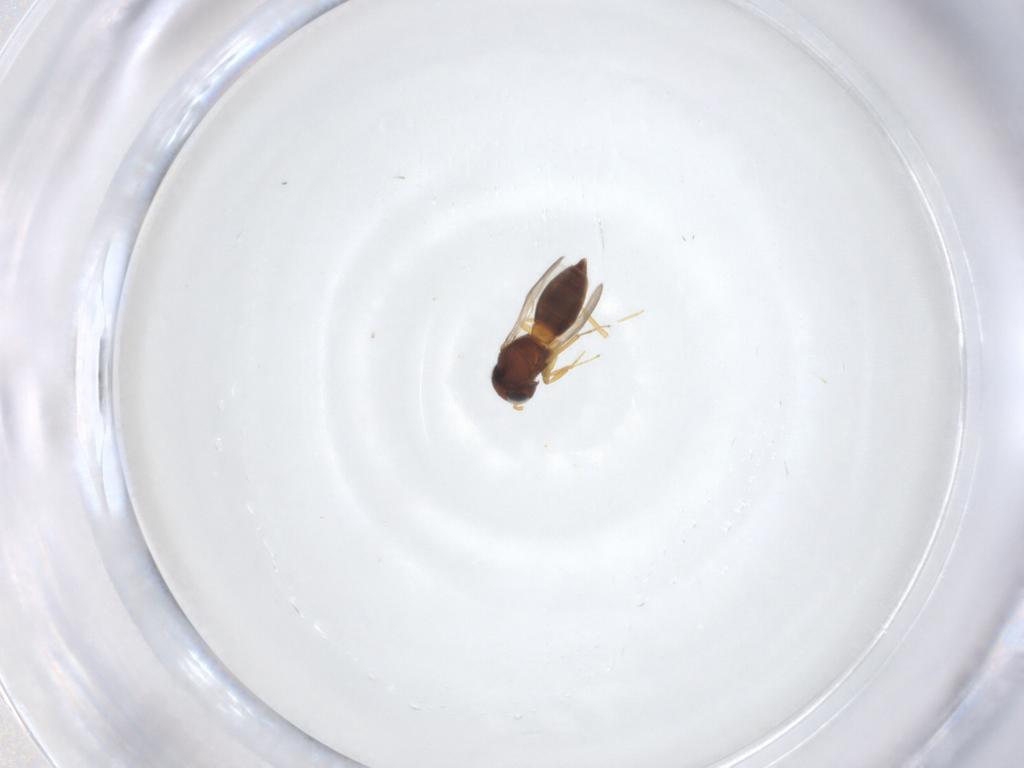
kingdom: Animalia
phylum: Arthropoda
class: Insecta
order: Hymenoptera
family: Scelionidae
